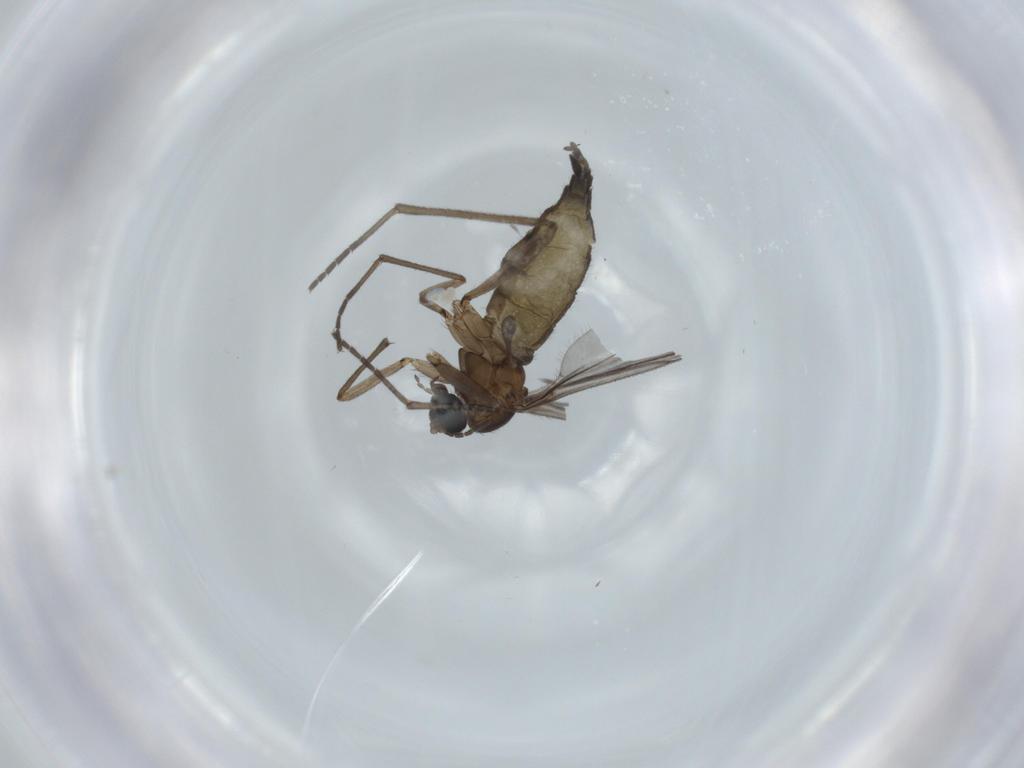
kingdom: Animalia
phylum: Arthropoda
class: Insecta
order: Diptera
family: Sciaridae
